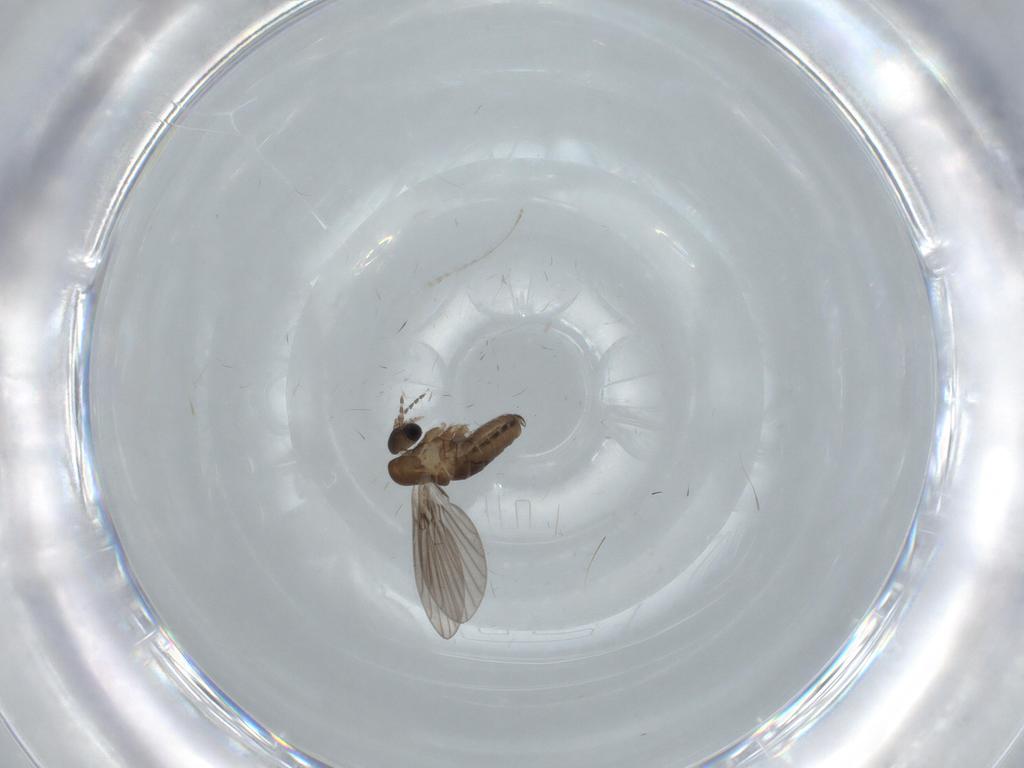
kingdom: Animalia
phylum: Arthropoda
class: Insecta
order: Diptera
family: Psychodidae
